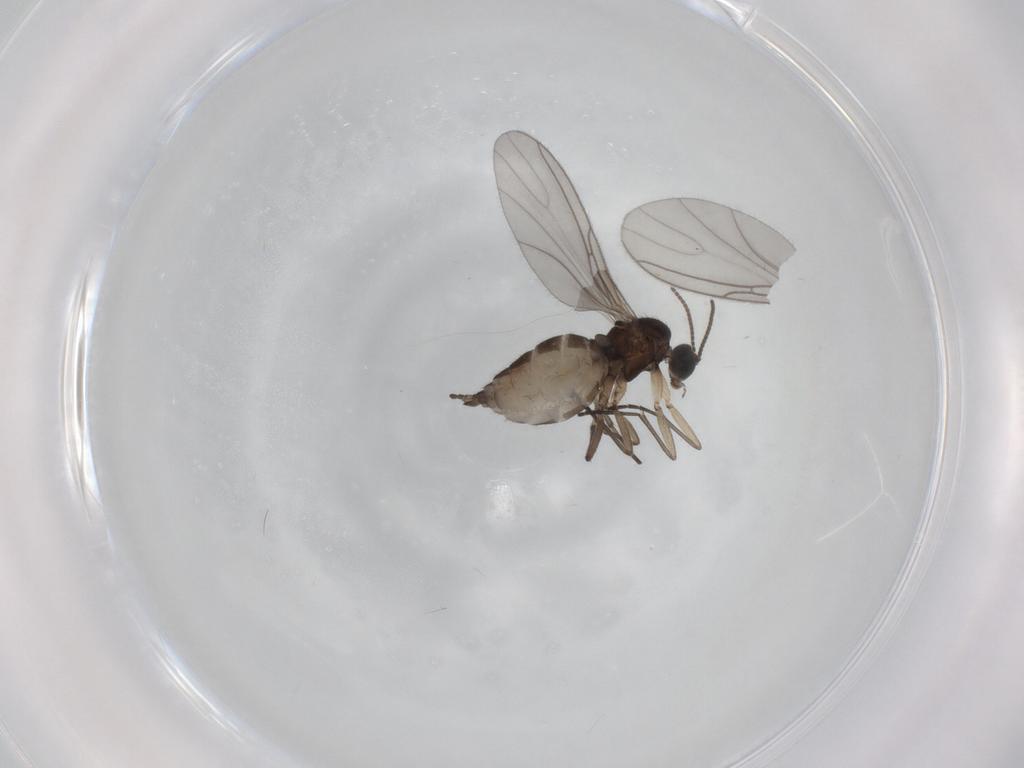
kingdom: Animalia
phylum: Arthropoda
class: Insecta
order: Diptera
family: Sciaridae
